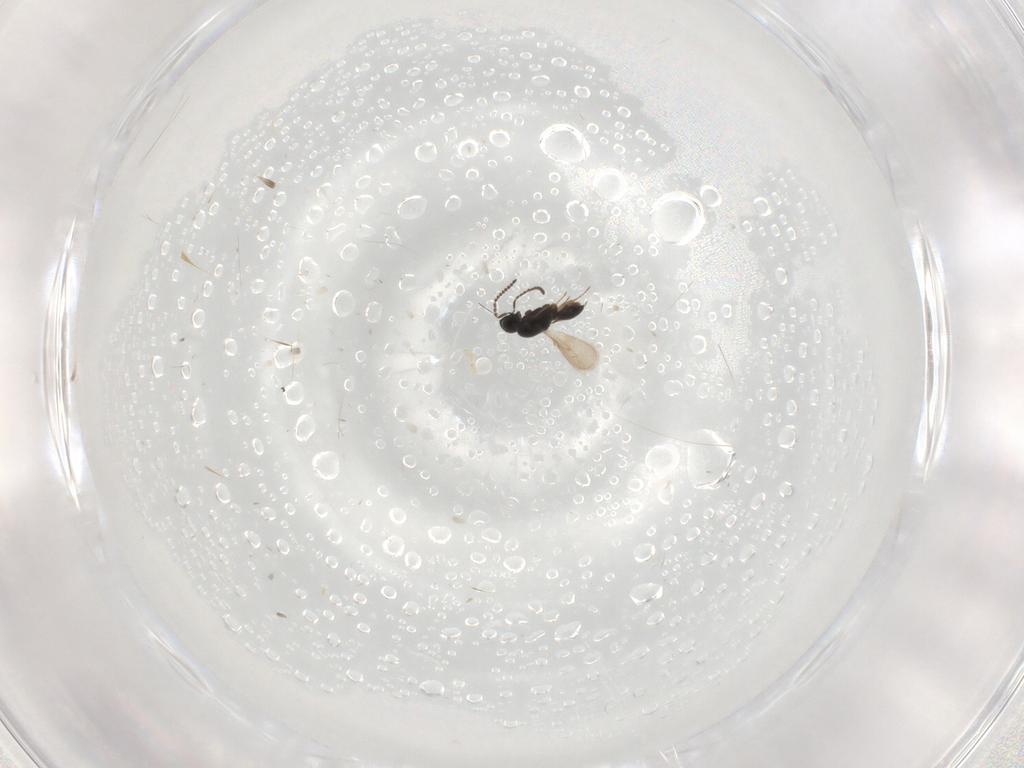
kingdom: Animalia
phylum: Arthropoda
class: Insecta
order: Hymenoptera
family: Scelionidae
